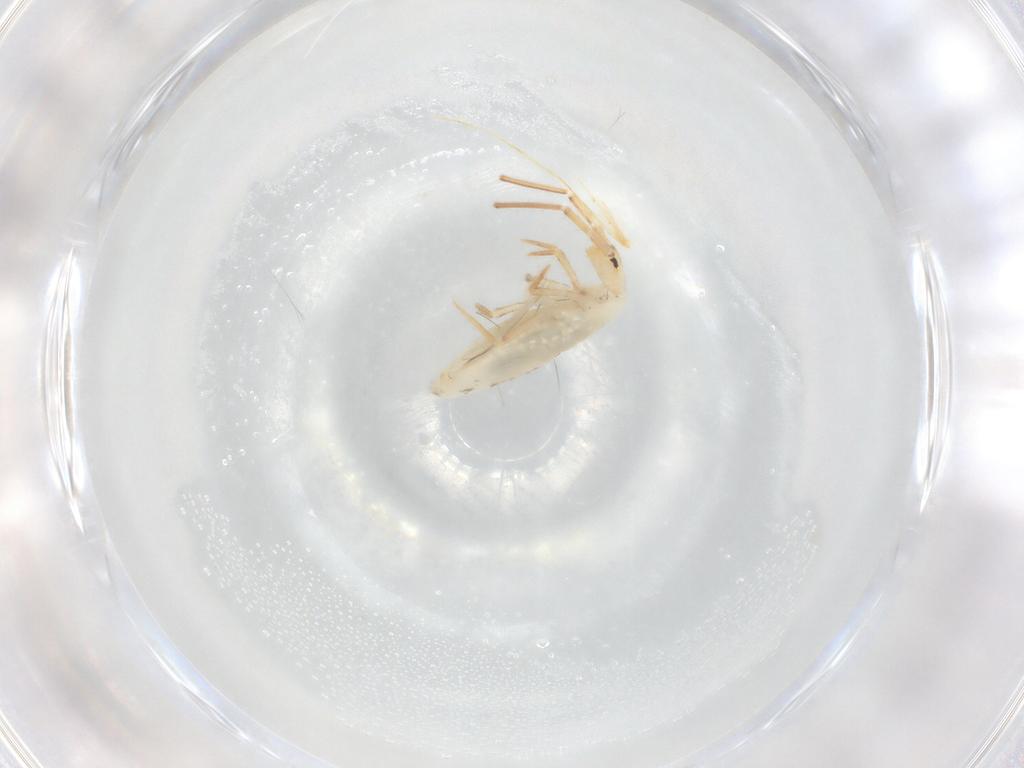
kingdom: Animalia
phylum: Arthropoda
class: Collembola
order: Entomobryomorpha
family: Entomobryidae
